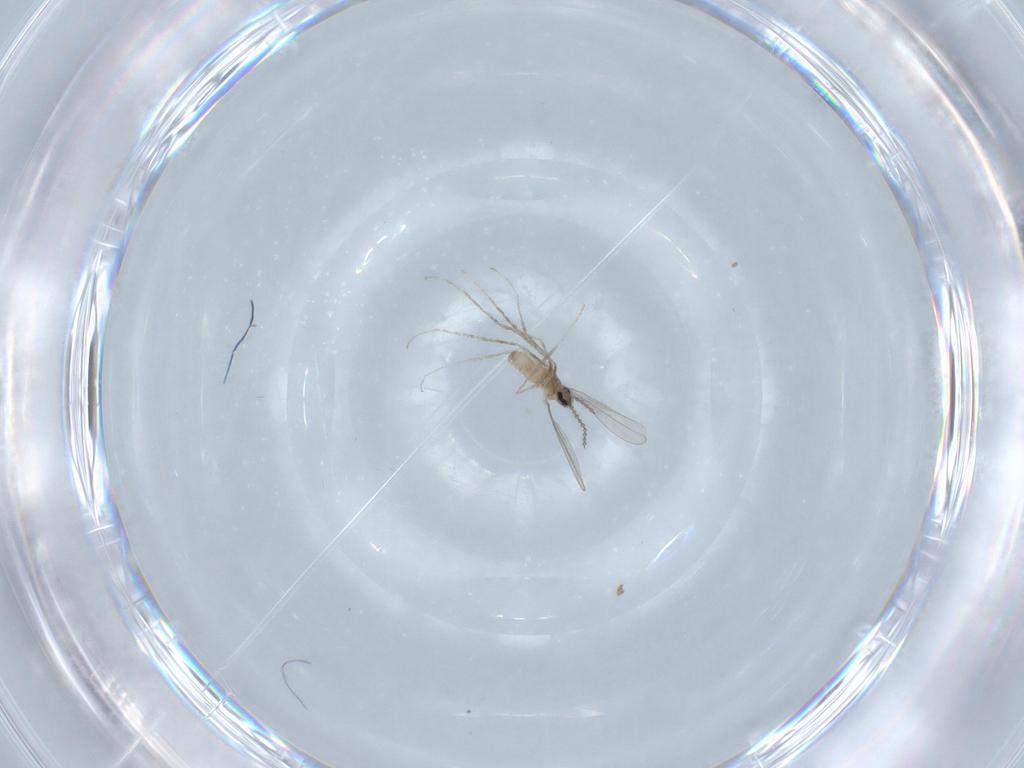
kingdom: Animalia
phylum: Arthropoda
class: Insecta
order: Diptera
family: Cecidomyiidae
